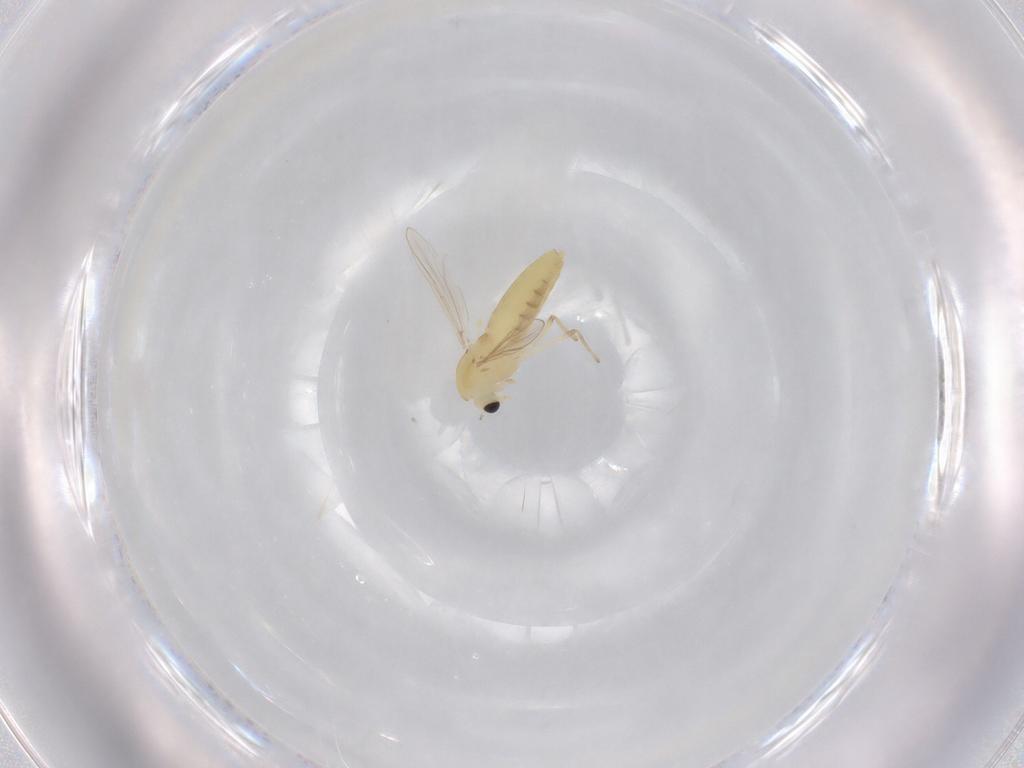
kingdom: Animalia
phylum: Arthropoda
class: Insecta
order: Diptera
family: Chironomidae
